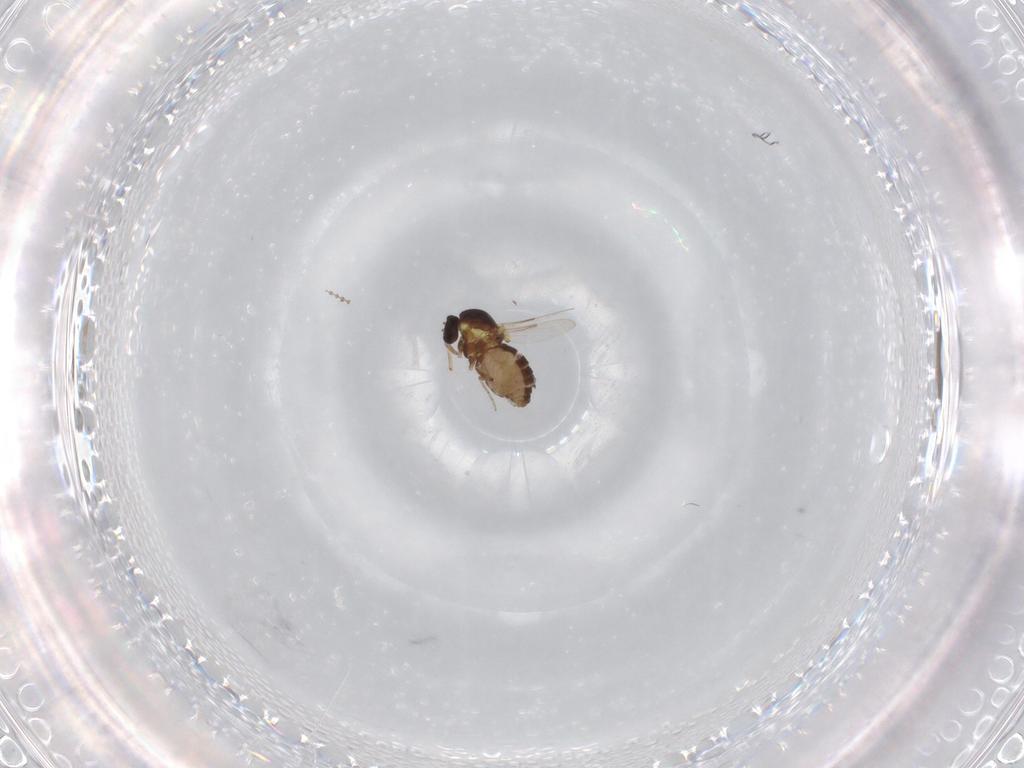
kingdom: Animalia
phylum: Arthropoda
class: Insecta
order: Diptera
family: Ceratopogonidae
